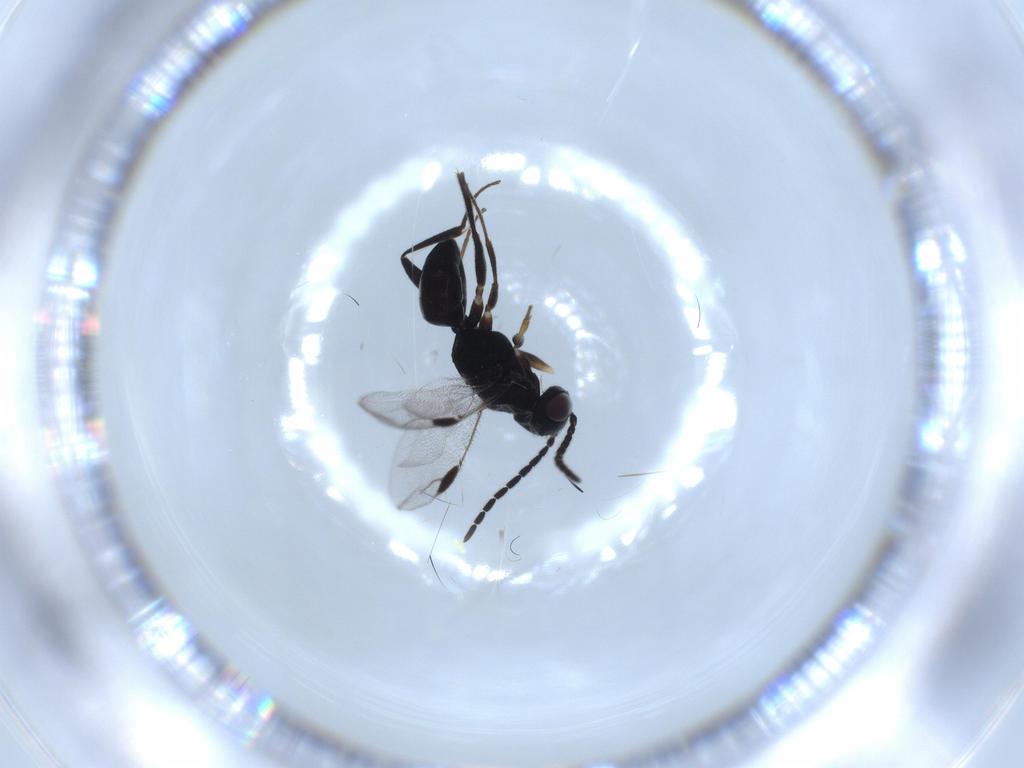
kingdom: Animalia
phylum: Arthropoda
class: Insecta
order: Hymenoptera
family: Dryinidae
